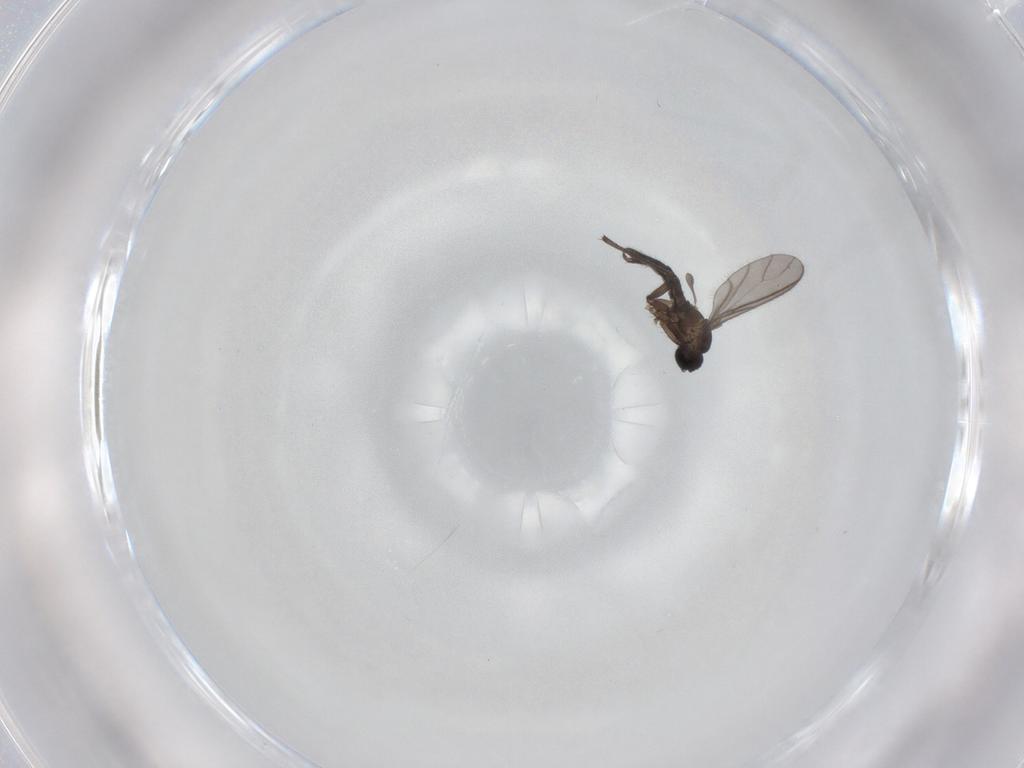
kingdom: Animalia
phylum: Arthropoda
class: Insecta
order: Diptera
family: Sciaridae
